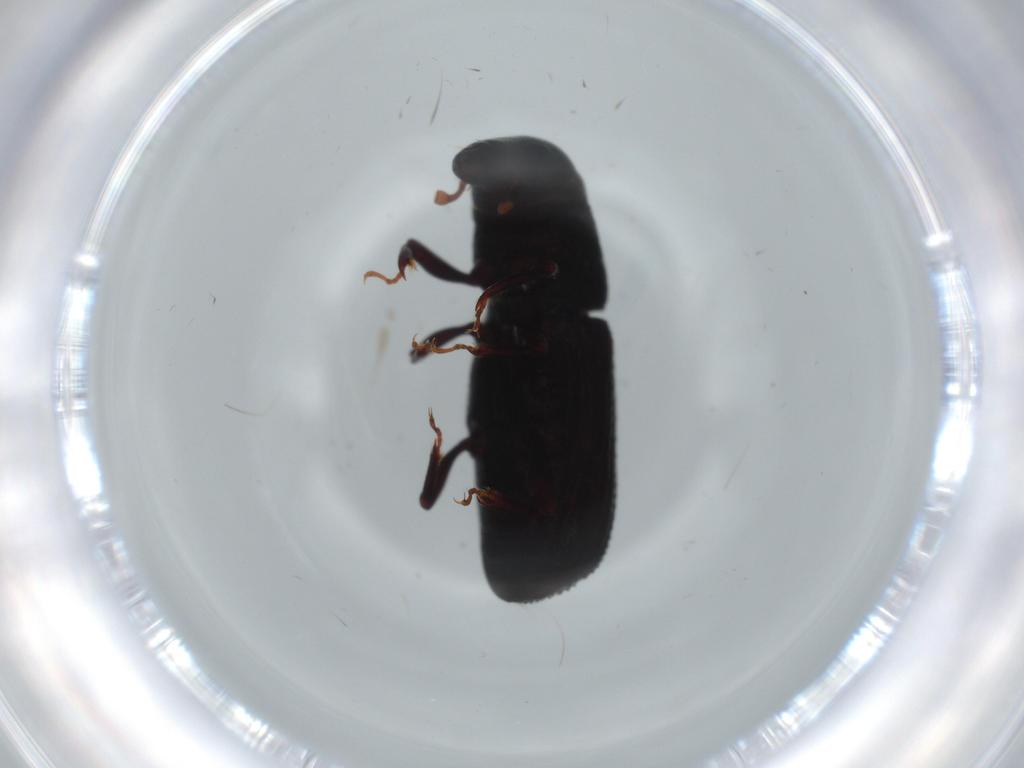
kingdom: Animalia
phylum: Arthropoda
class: Insecta
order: Coleoptera
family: Curculionidae
